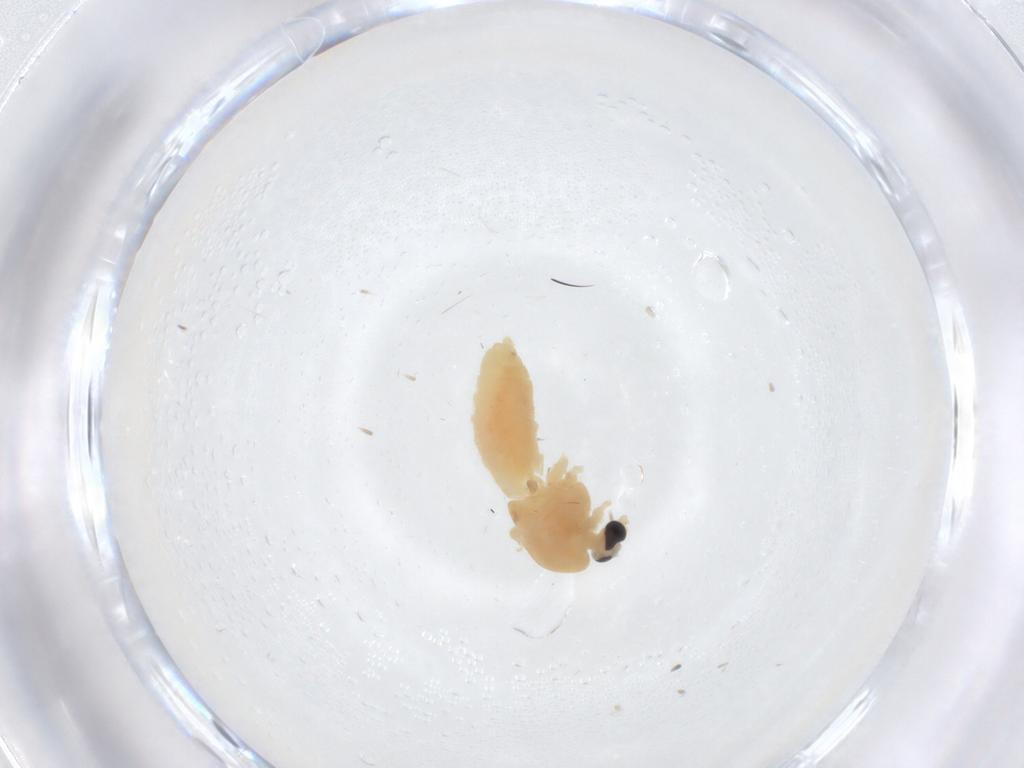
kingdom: Animalia
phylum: Arthropoda
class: Insecta
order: Diptera
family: Chironomidae
